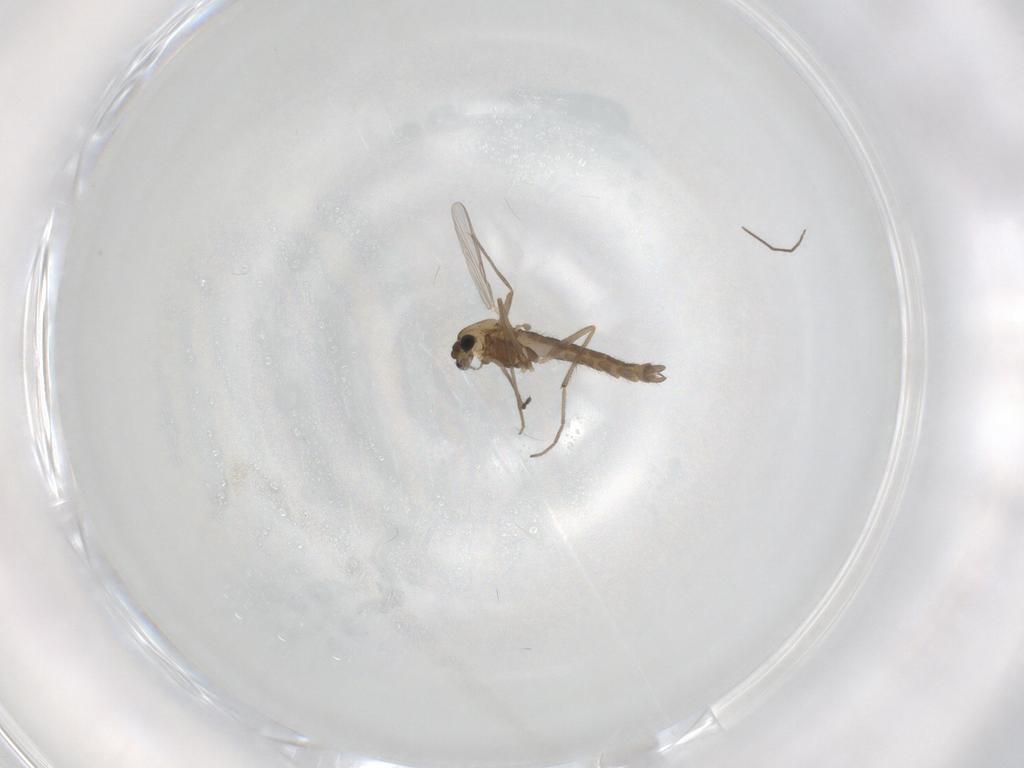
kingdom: Animalia
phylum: Arthropoda
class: Insecta
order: Diptera
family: Chironomidae
